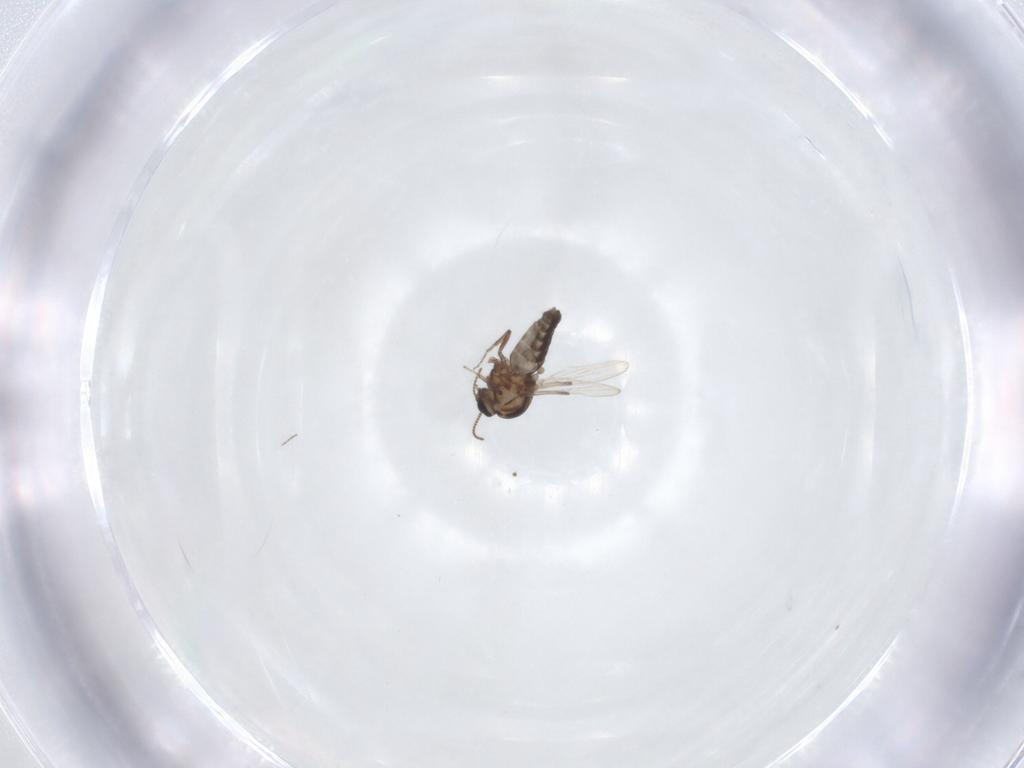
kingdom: Animalia
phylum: Arthropoda
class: Insecta
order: Diptera
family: Ceratopogonidae
